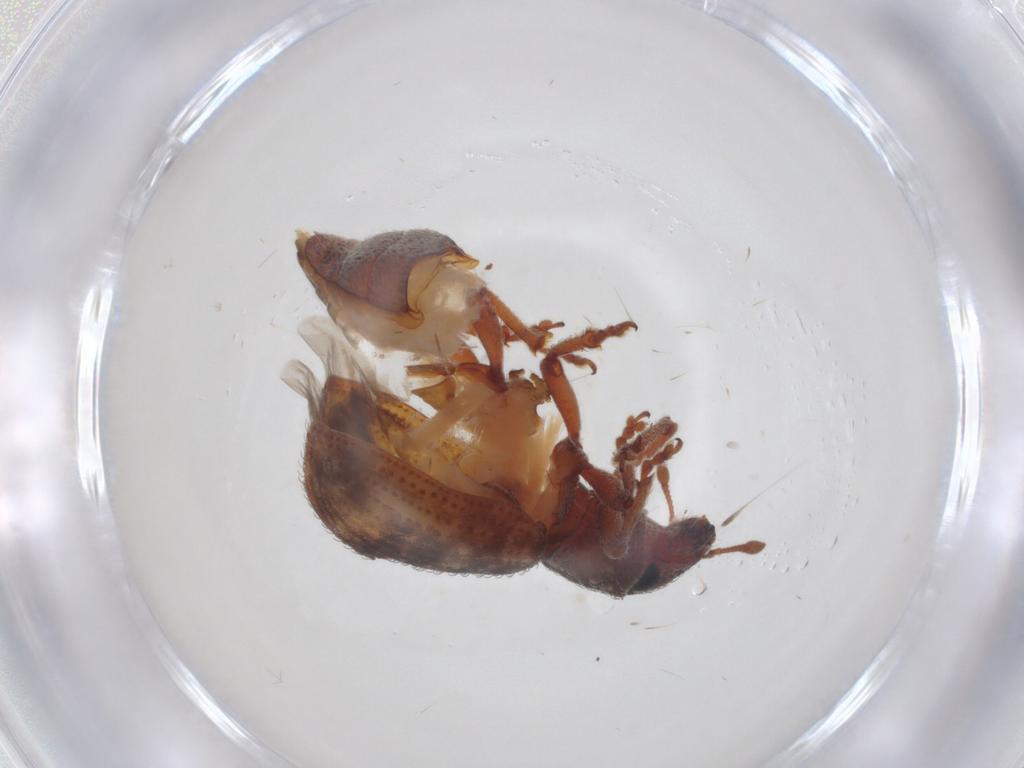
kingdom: Animalia
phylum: Arthropoda
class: Insecta
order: Coleoptera
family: Curculionidae
